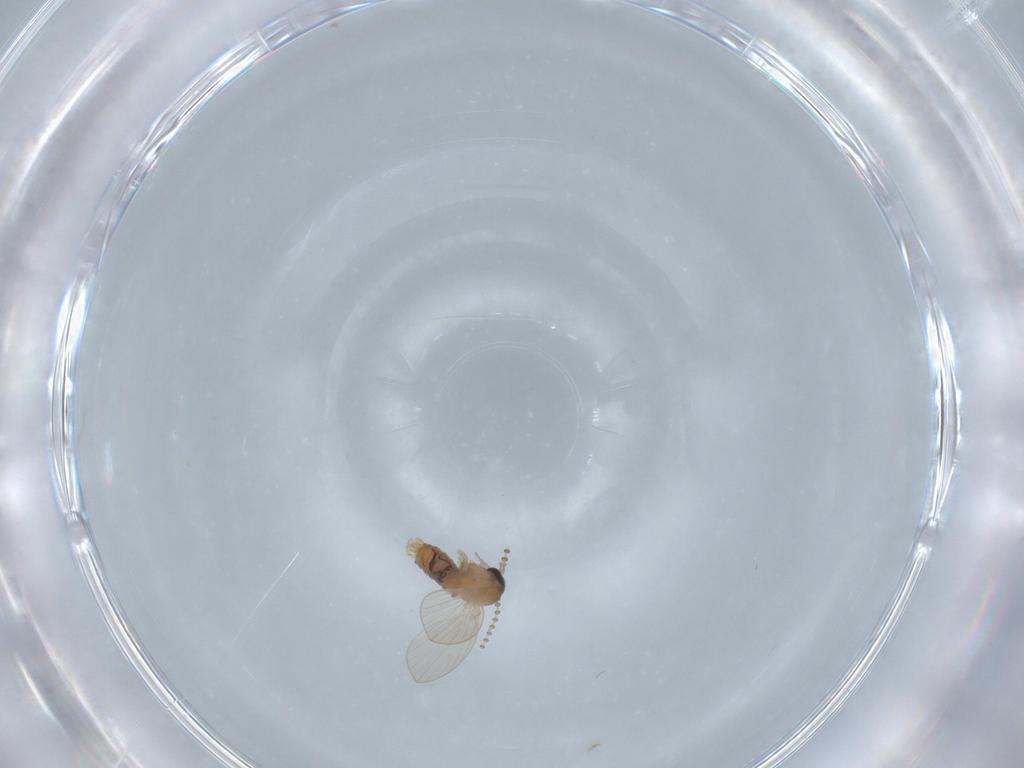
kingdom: Animalia
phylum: Arthropoda
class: Insecta
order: Diptera
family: Psychodidae
